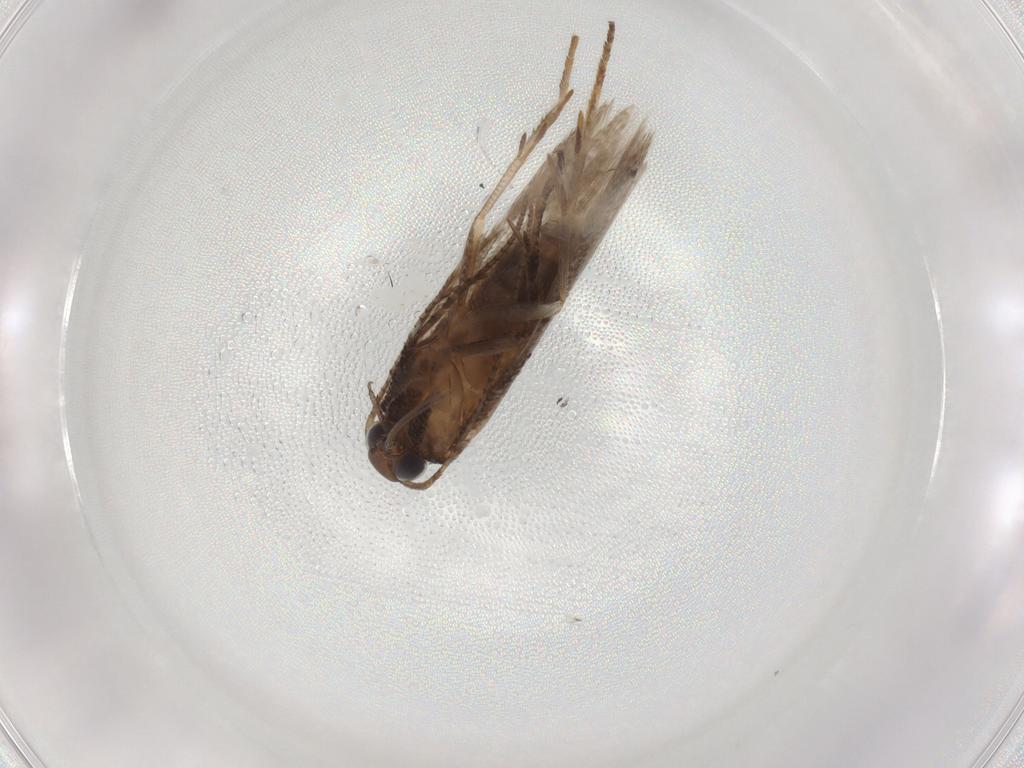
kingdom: Animalia
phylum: Arthropoda
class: Insecta
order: Lepidoptera
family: Gelechiidae
